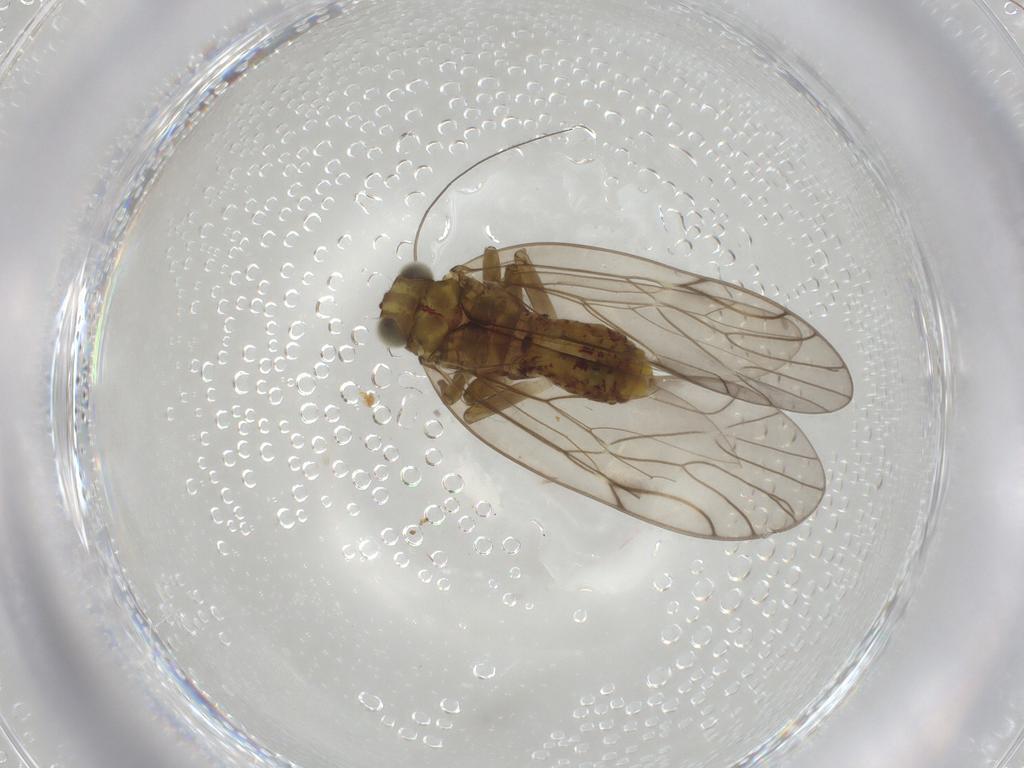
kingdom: Animalia
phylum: Arthropoda
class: Insecta
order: Psocodea
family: Philotarsidae
